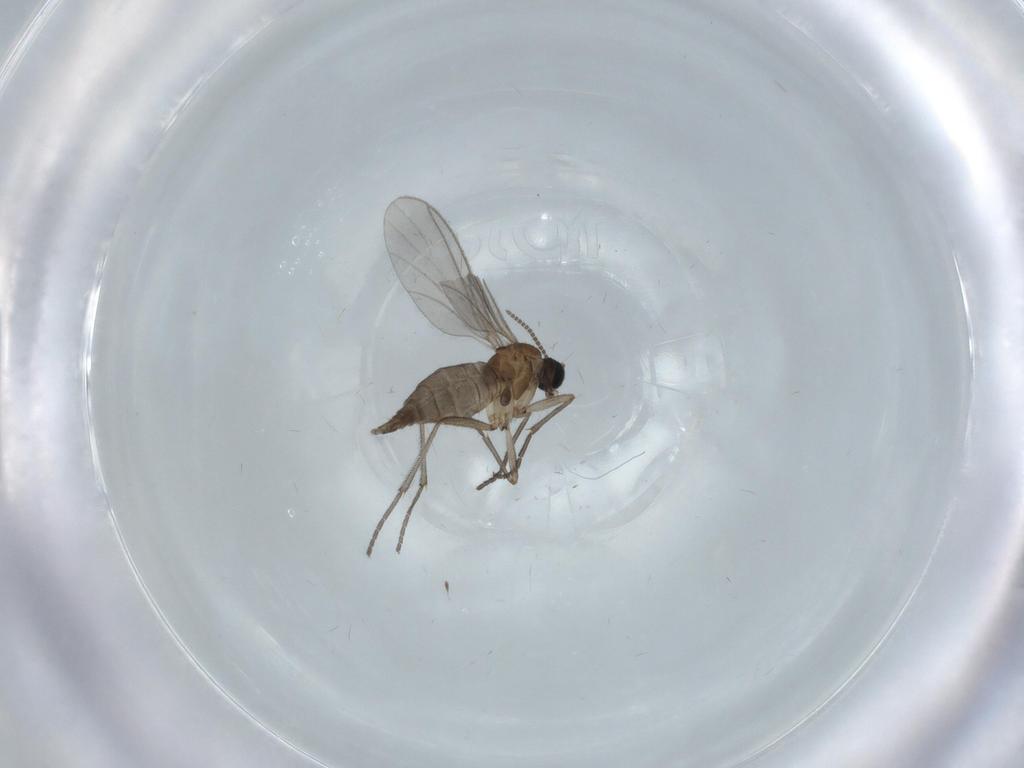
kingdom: Animalia
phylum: Arthropoda
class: Insecta
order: Diptera
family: Sciaridae
